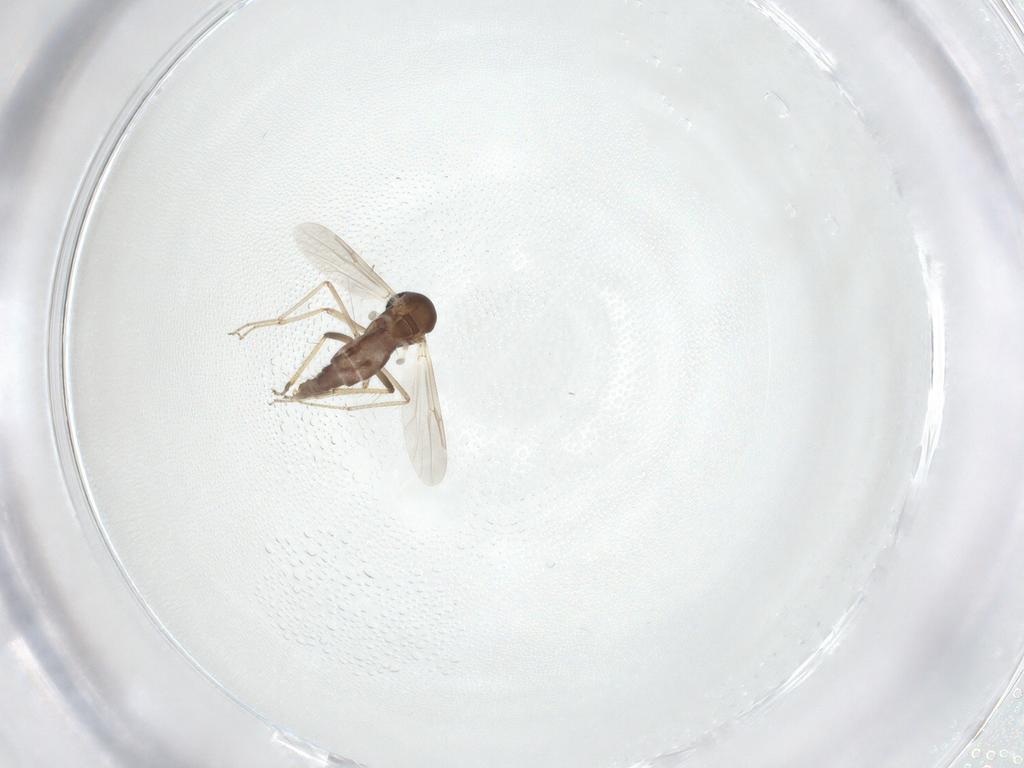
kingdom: Animalia
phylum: Arthropoda
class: Insecta
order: Diptera
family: Ceratopogonidae
